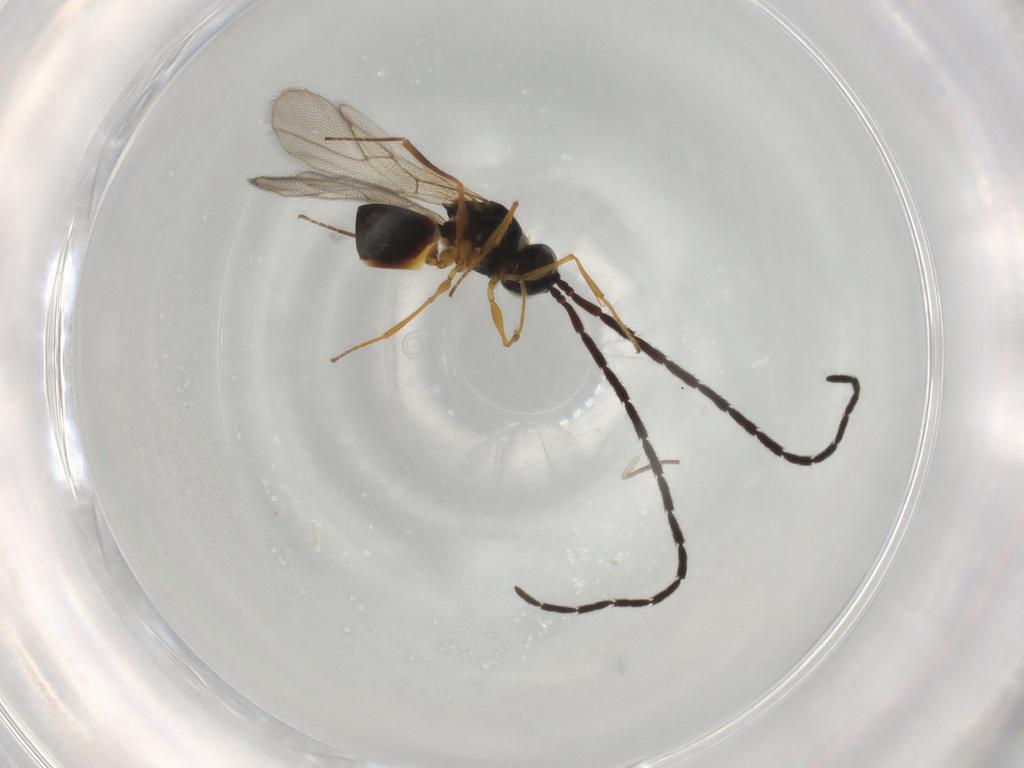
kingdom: Animalia
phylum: Arthropoda
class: Insecta
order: Hymenoptera
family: Figitidae
